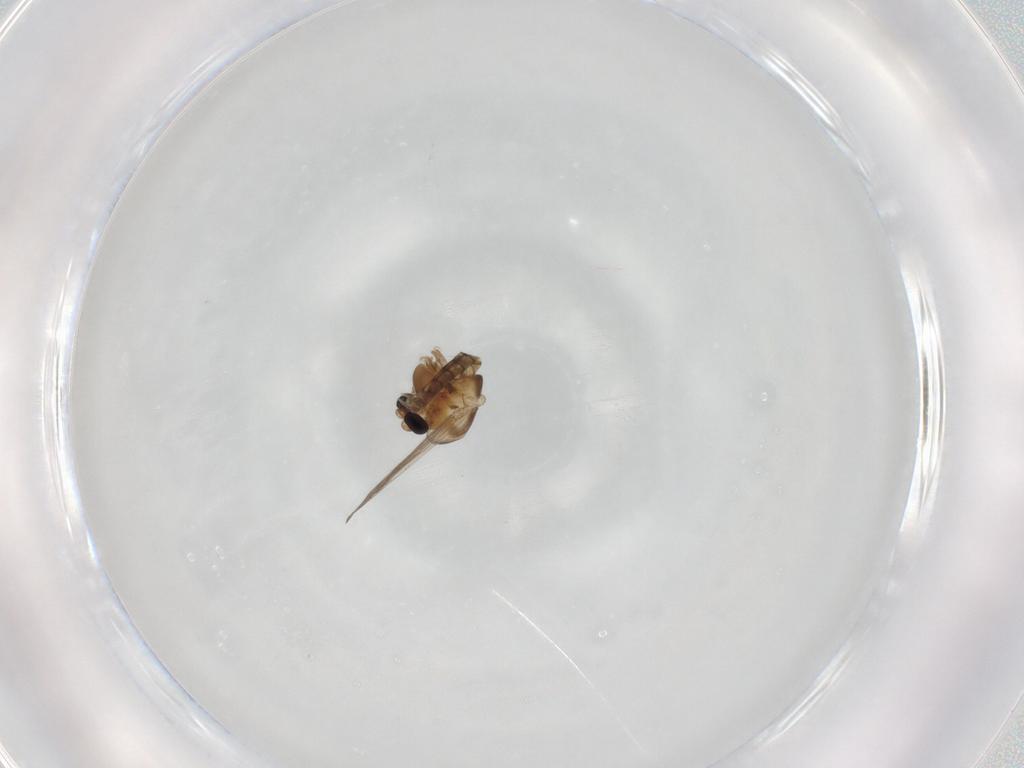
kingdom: Animalia
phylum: Arthropoda
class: Insecta
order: Diptera
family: Chironomidae
